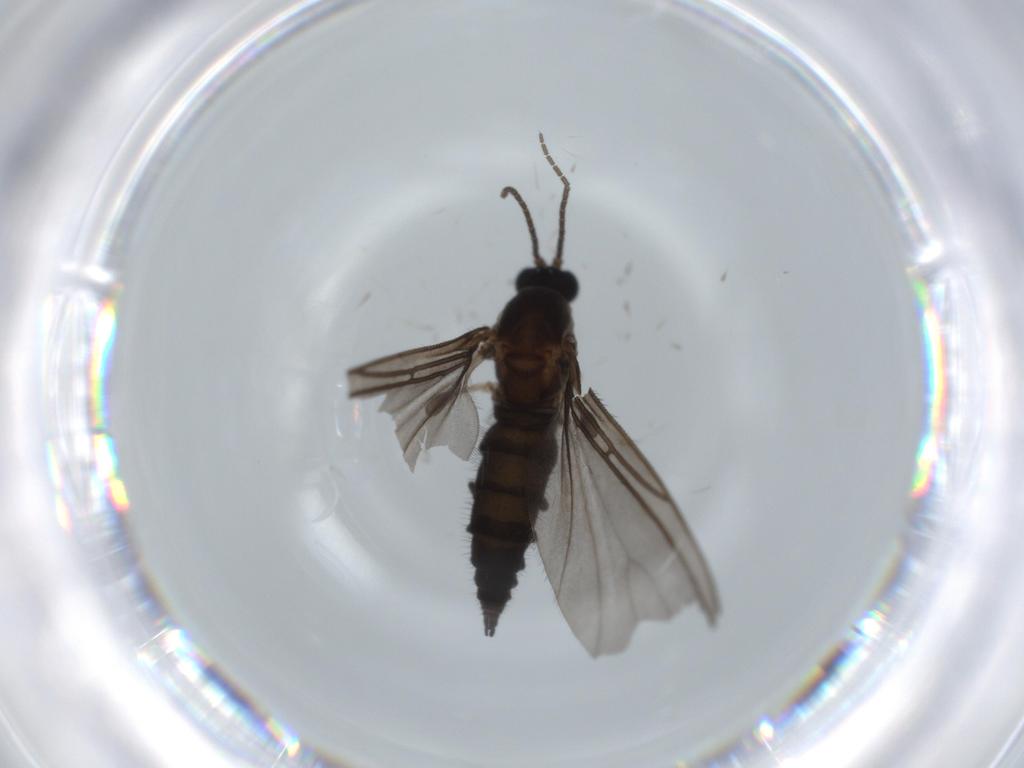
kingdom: Animalia
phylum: Arthropoda
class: Insecta
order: Diptera
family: Sciaridae
